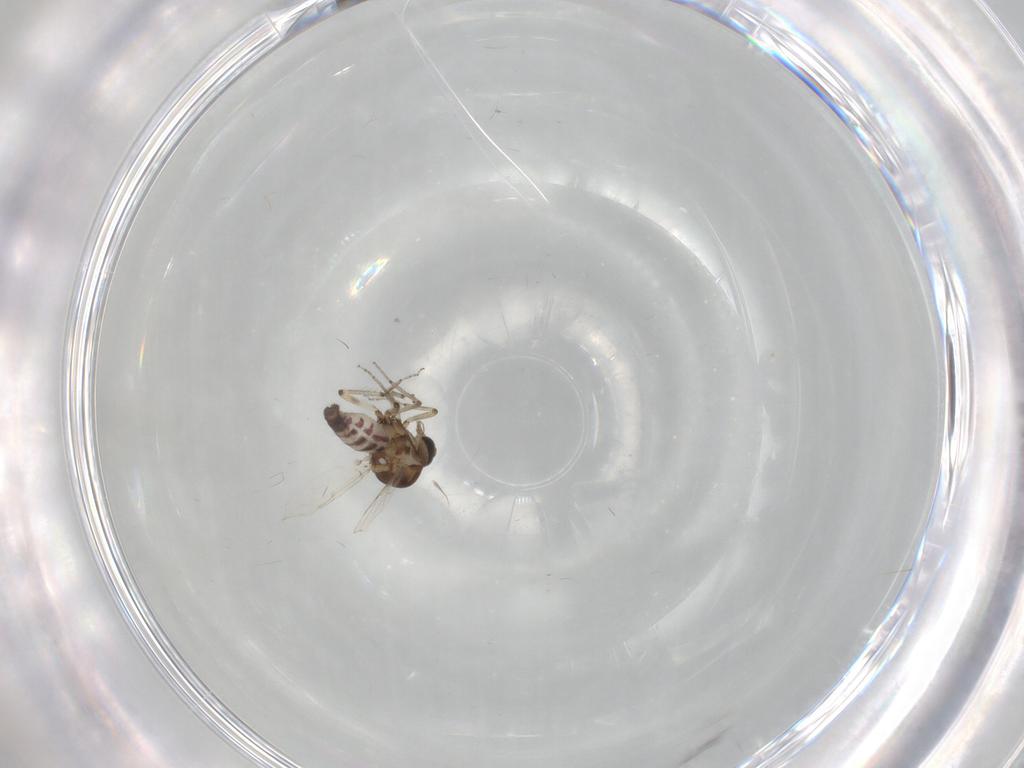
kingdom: Animalia
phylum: Arthropoda
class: Insecta
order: Diptera
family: Ceratopogonidae
